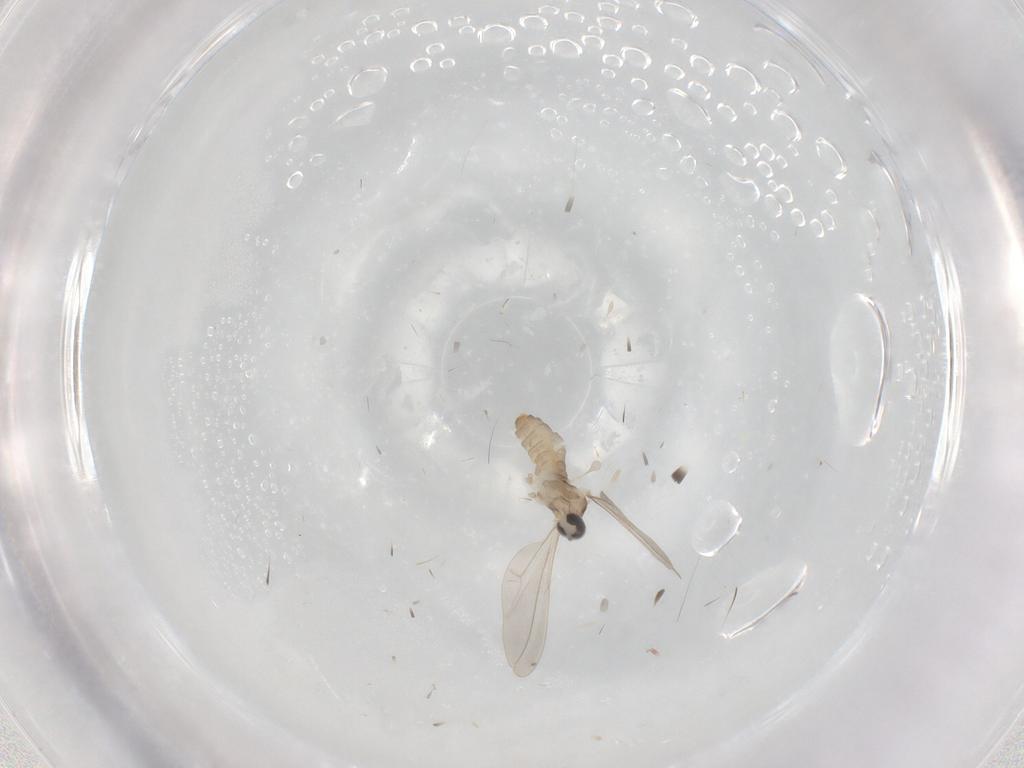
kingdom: Animalia
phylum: Arthropoda
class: Insecta
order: Diptera
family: Cecidomyiidae
